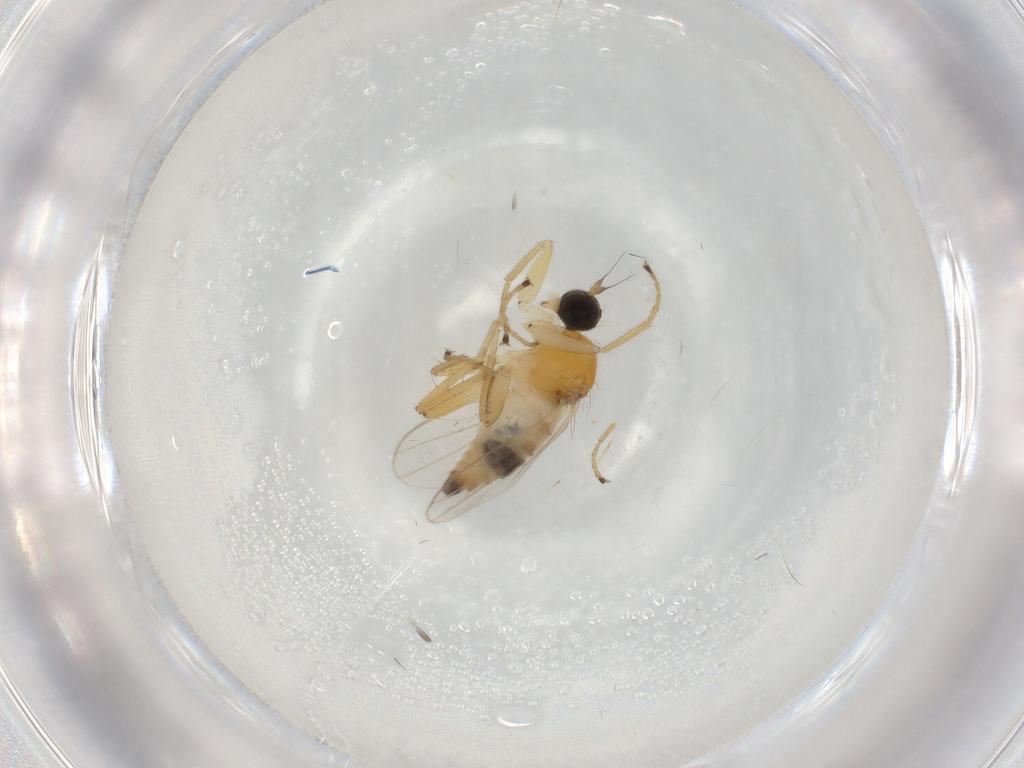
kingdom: Animalia
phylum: Arthropoda
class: Insecta
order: Diptera
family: Hybotidae
